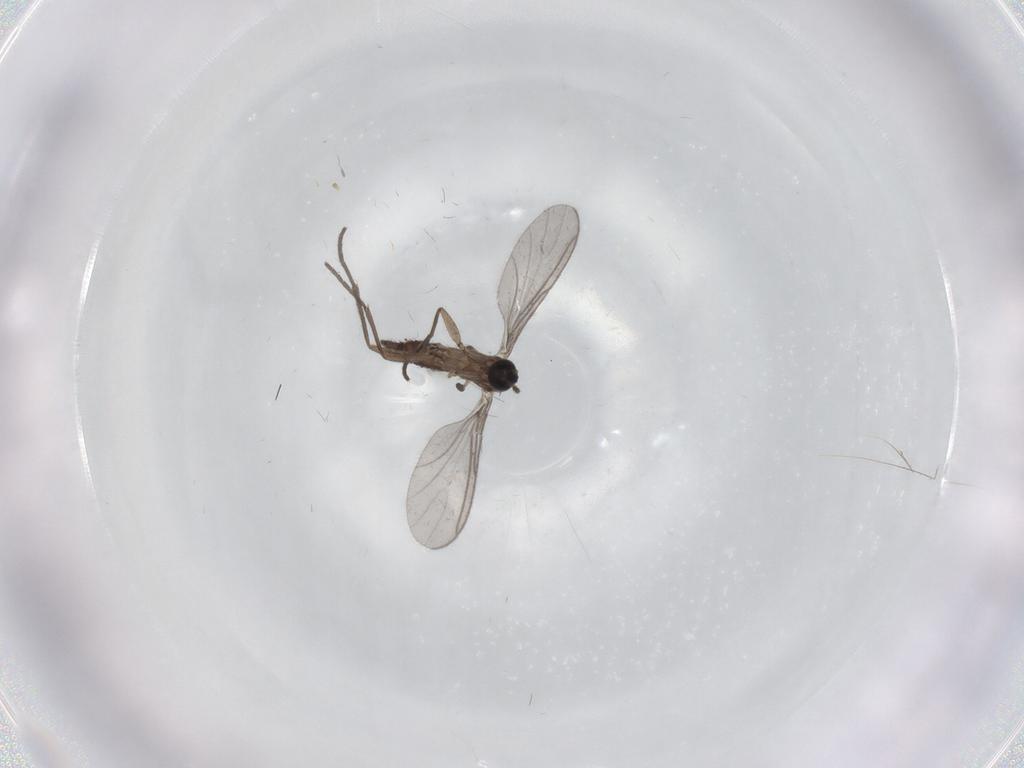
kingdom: Animalia
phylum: Arthropoda
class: Insecta
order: Diptera
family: Sciaridae
